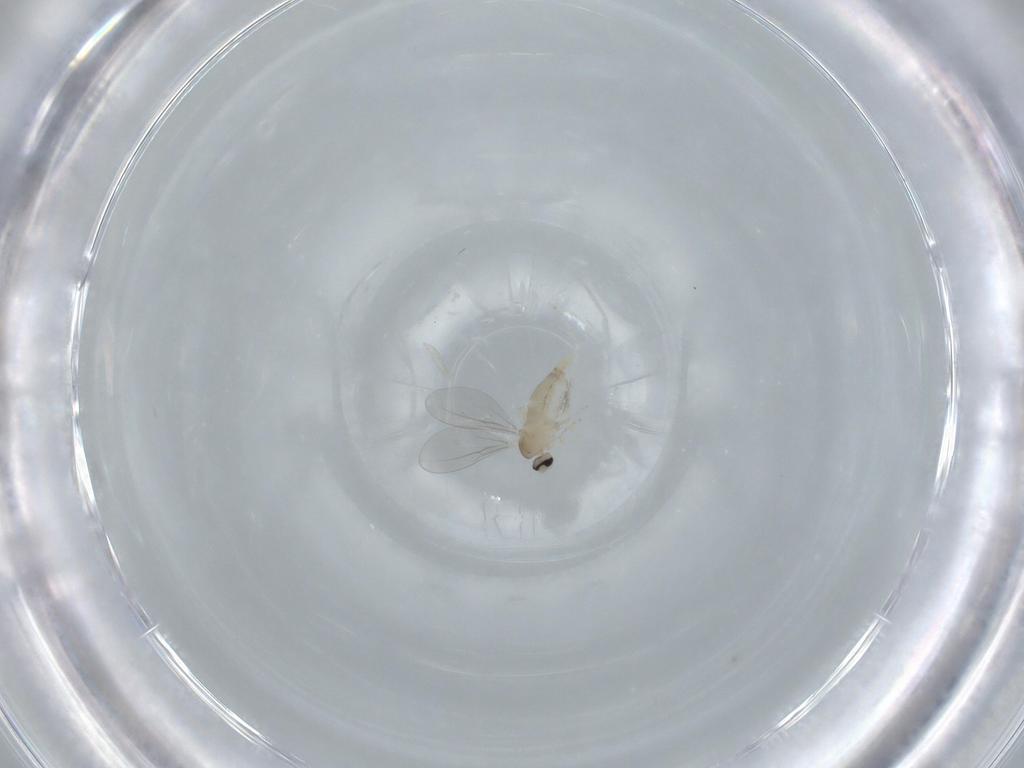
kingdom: Animalia
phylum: Arthropoda
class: Insecta
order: Diptera
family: Cecidomyiidae
